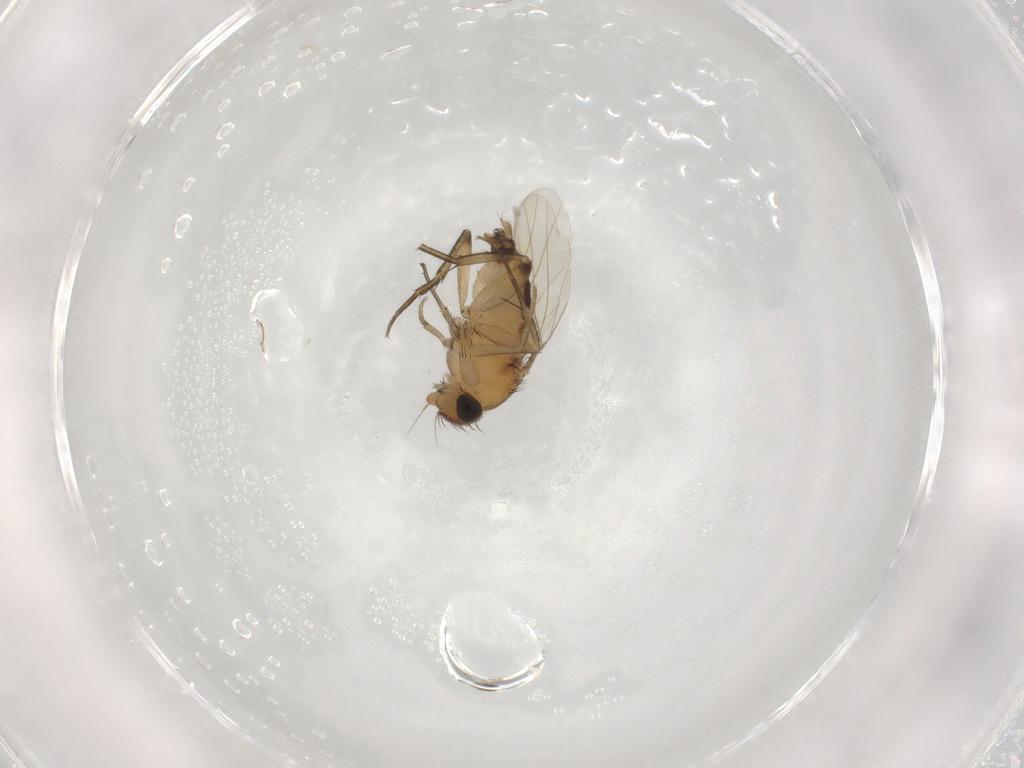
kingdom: Animalia
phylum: Arthropoda
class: Insecta
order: Diptera
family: Phoridae
